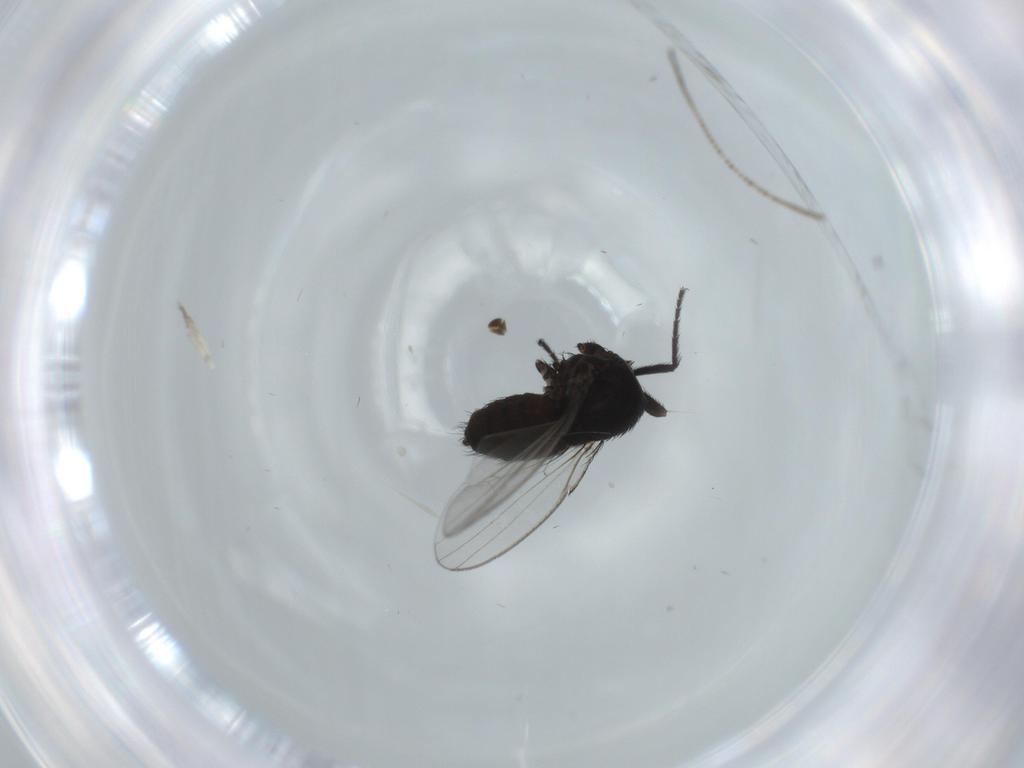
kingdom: Animalia
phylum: Arthropoda
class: Insecta
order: Diptera
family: Milichiidae
